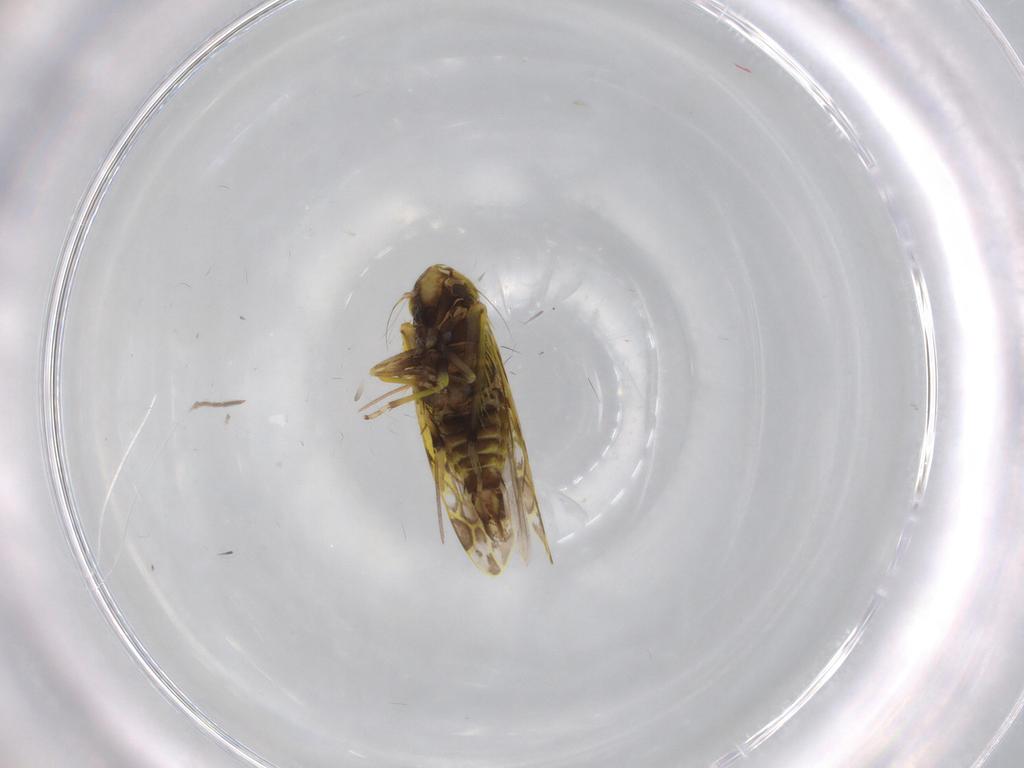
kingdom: Animalia
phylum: Arthropoda
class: Insecta
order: Hemiptera
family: Cicadellidae
